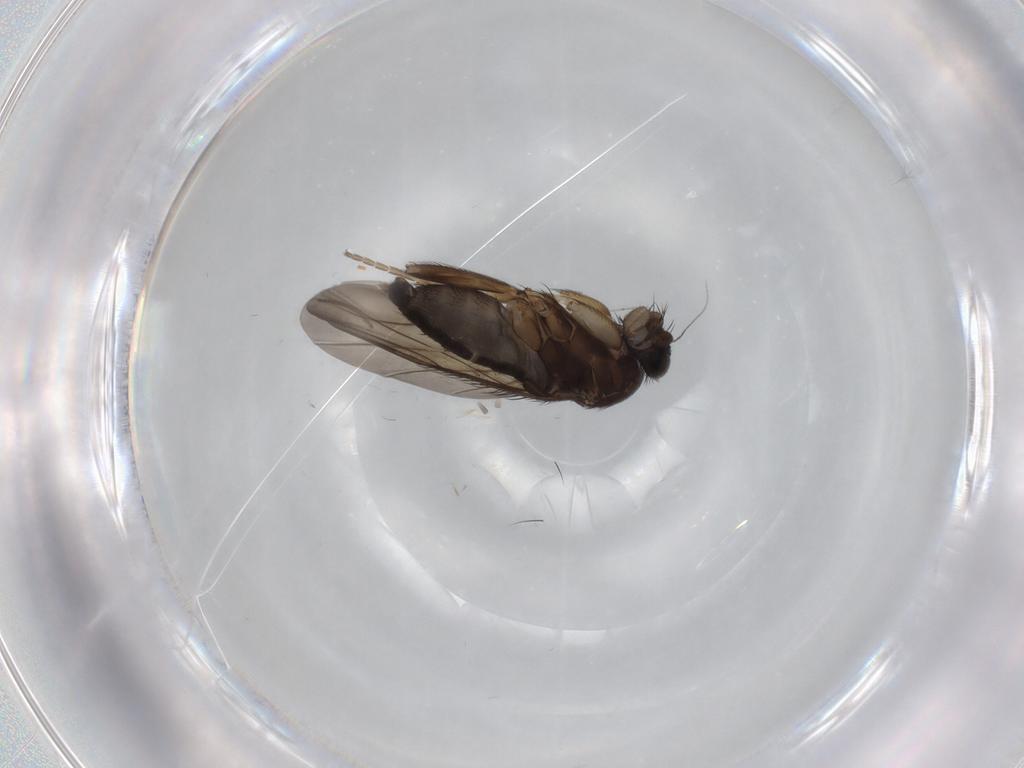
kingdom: Animalia
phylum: Arthropoda
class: Insecta
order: Diptera
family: Phoridae
